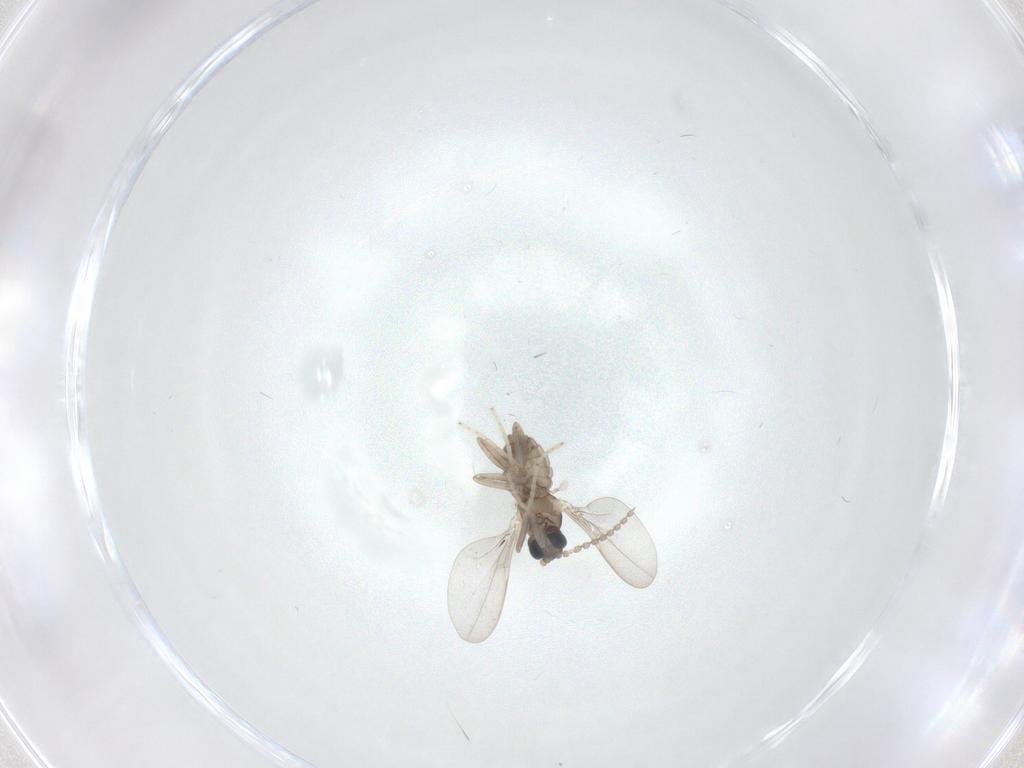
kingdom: Animalia
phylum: Arthropoda
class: Insecta
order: Diptera
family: Cecidomyiidae
